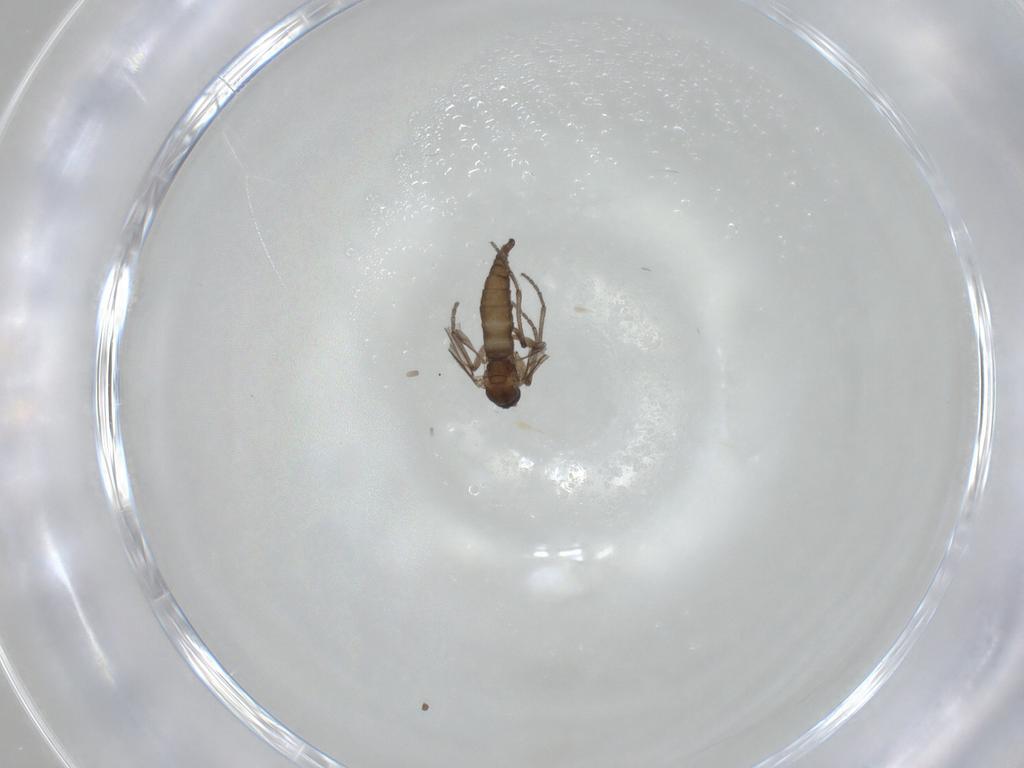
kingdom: Animalia
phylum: Arthropoda
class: Insecta
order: Diptera
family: Sciaridae
